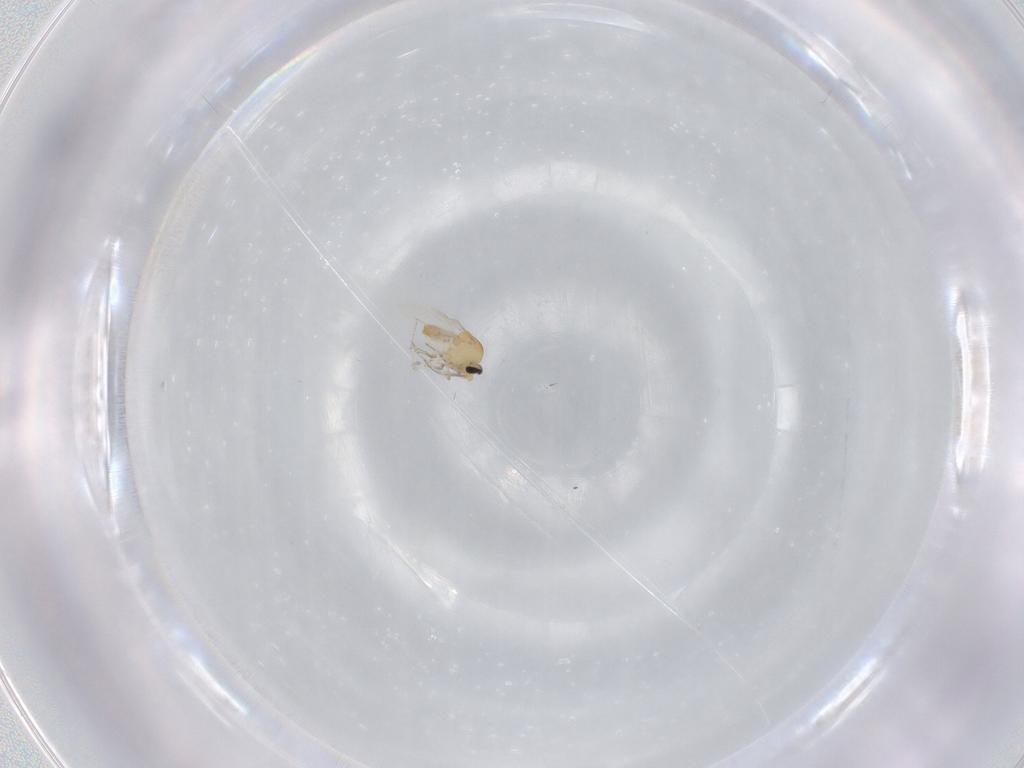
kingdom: Animalia
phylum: Arthropoda
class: Insecta
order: Diptera
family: Ceratopogonidae
